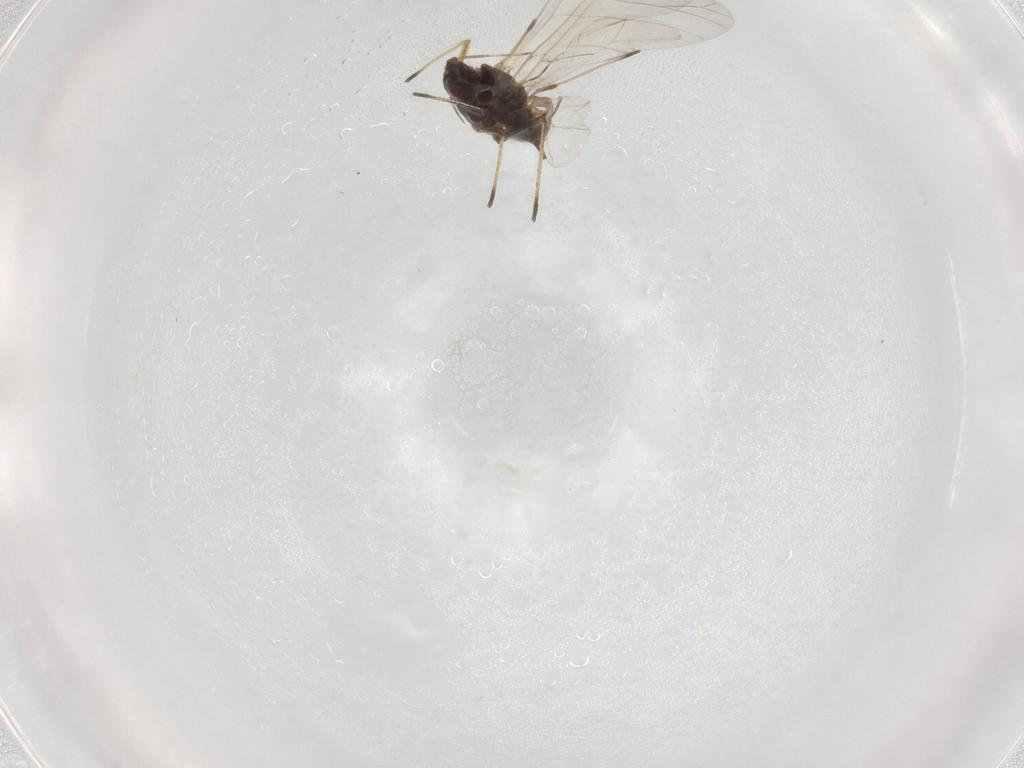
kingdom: Animalia
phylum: Arthropoda
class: Insecta
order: Hemiptera
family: Aphididae
